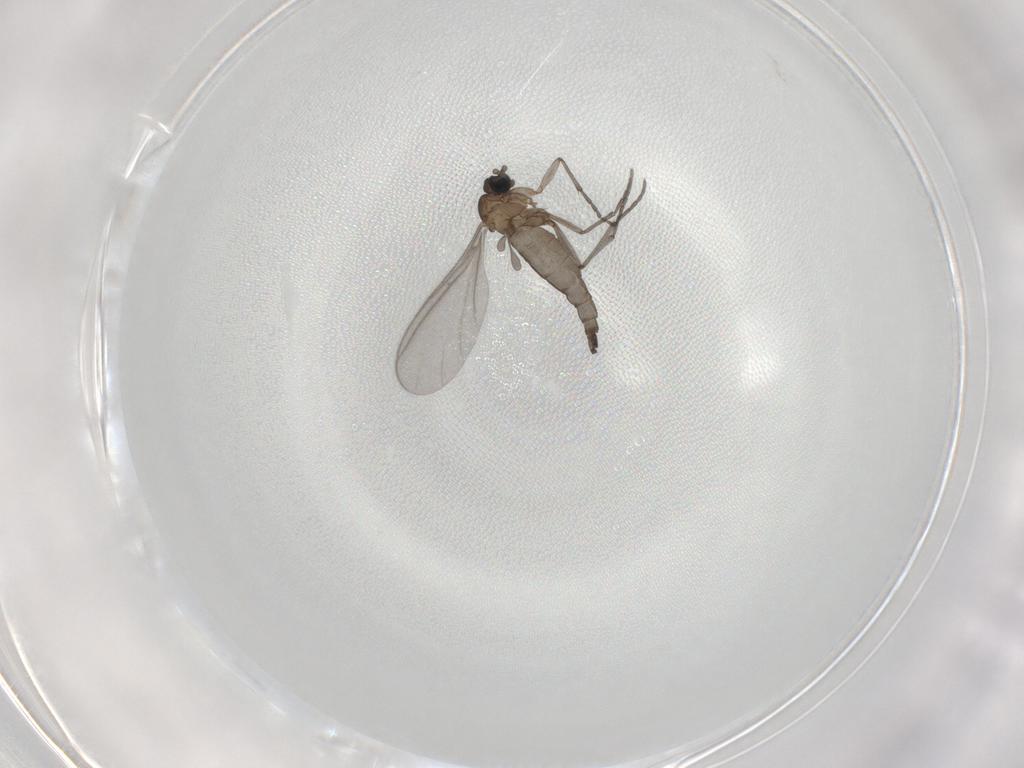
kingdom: Animalia
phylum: Arthropoda
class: Insecta
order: Diptera
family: Sciaridae
